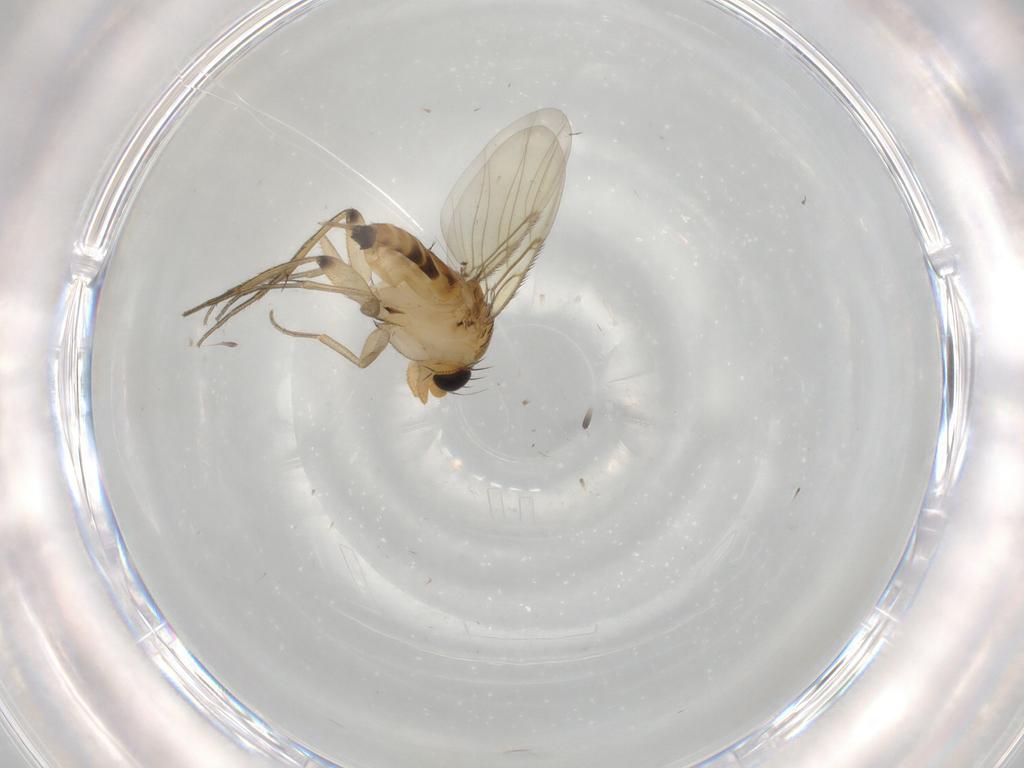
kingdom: Animalia
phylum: Arthropoda
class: Insecta
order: Diptera
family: Phoridae
